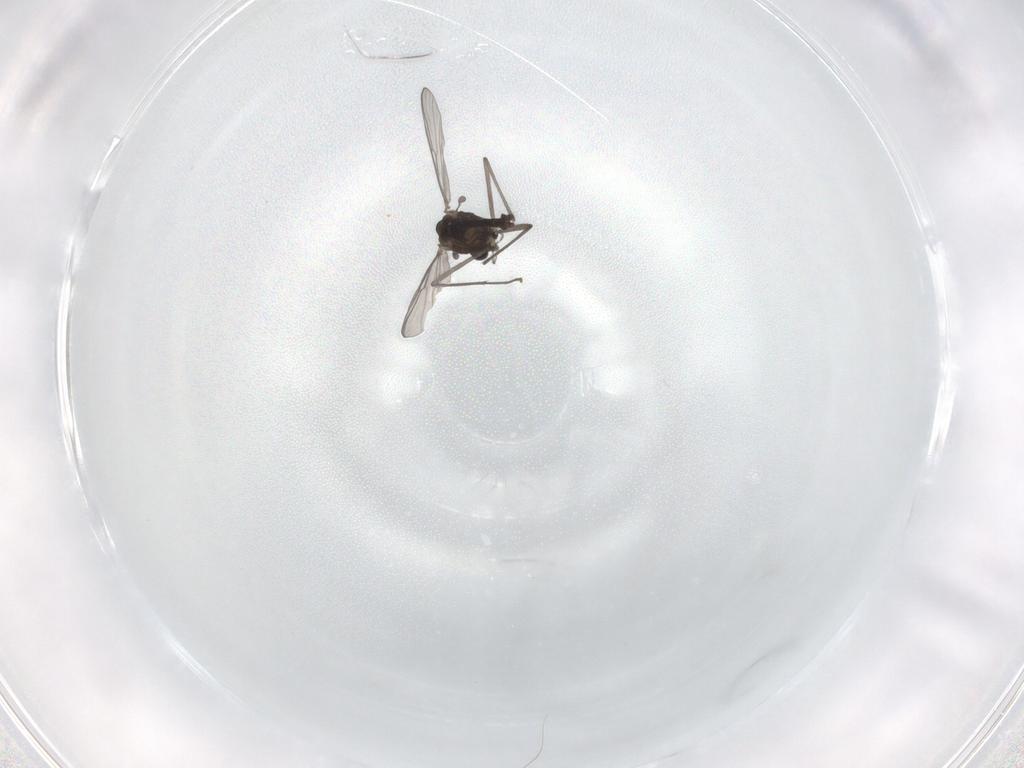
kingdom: Animalia
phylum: Arthropoda
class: Insecta
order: Diptera
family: Chironomidae
